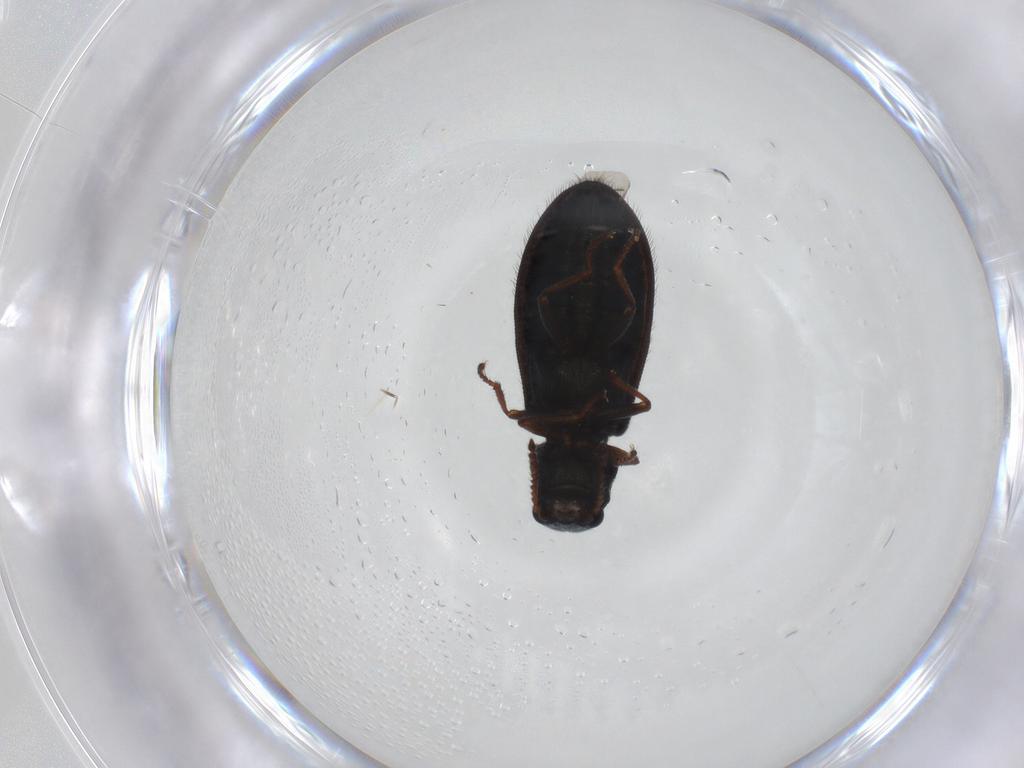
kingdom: Animalia
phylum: Arthropoda
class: Insecta
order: Coleoptera
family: Melyridae
